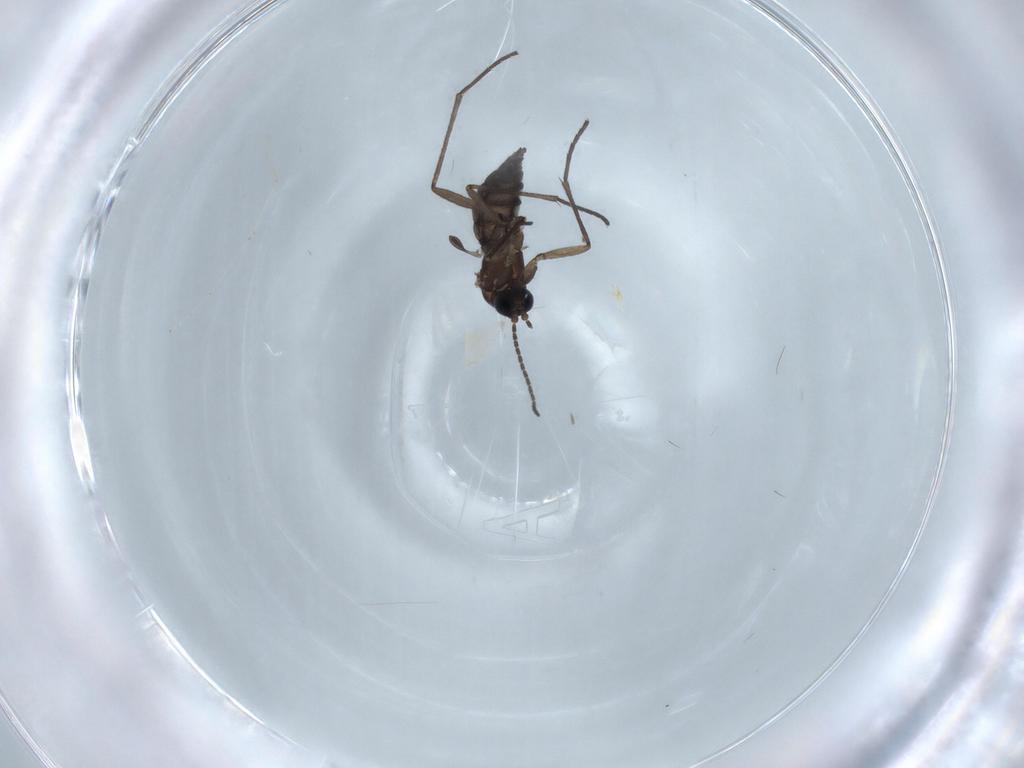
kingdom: Animalia
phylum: Arthropoda
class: Insecta
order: Diptera
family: Sciaridae
